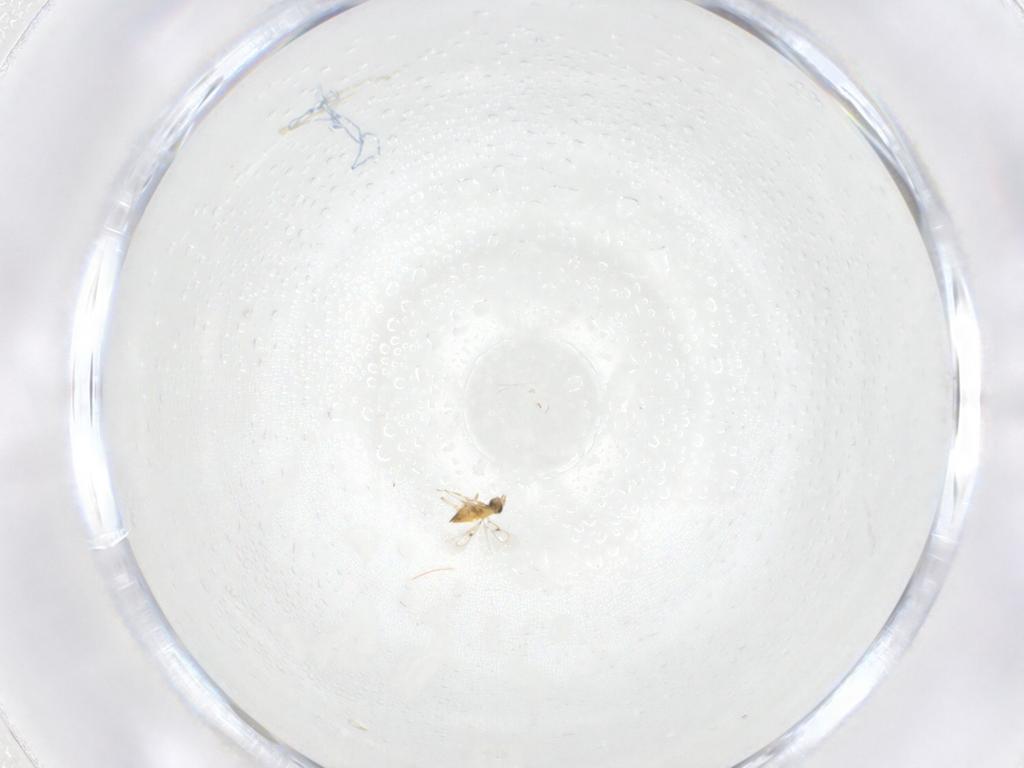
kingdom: Animalia
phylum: Arthropoda
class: Insecta
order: Hymenoptera
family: Trichogrammatidae
